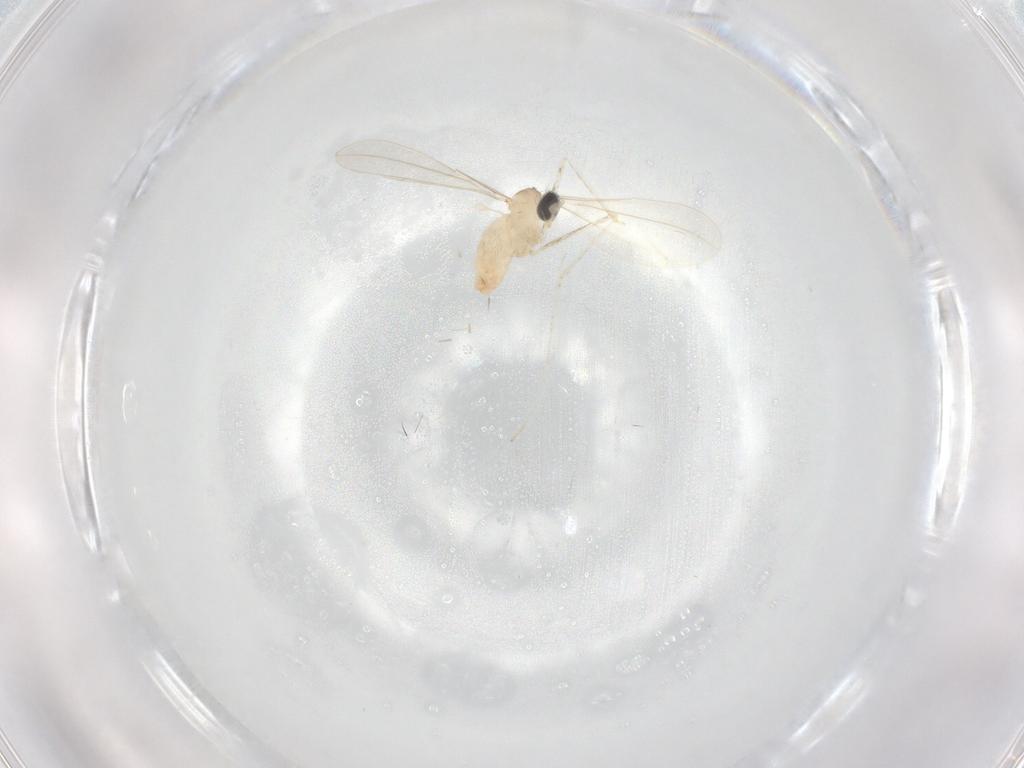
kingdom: Animalia
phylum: Arthropoda
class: Insecta
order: Diptera
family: Cecidomyiidae
